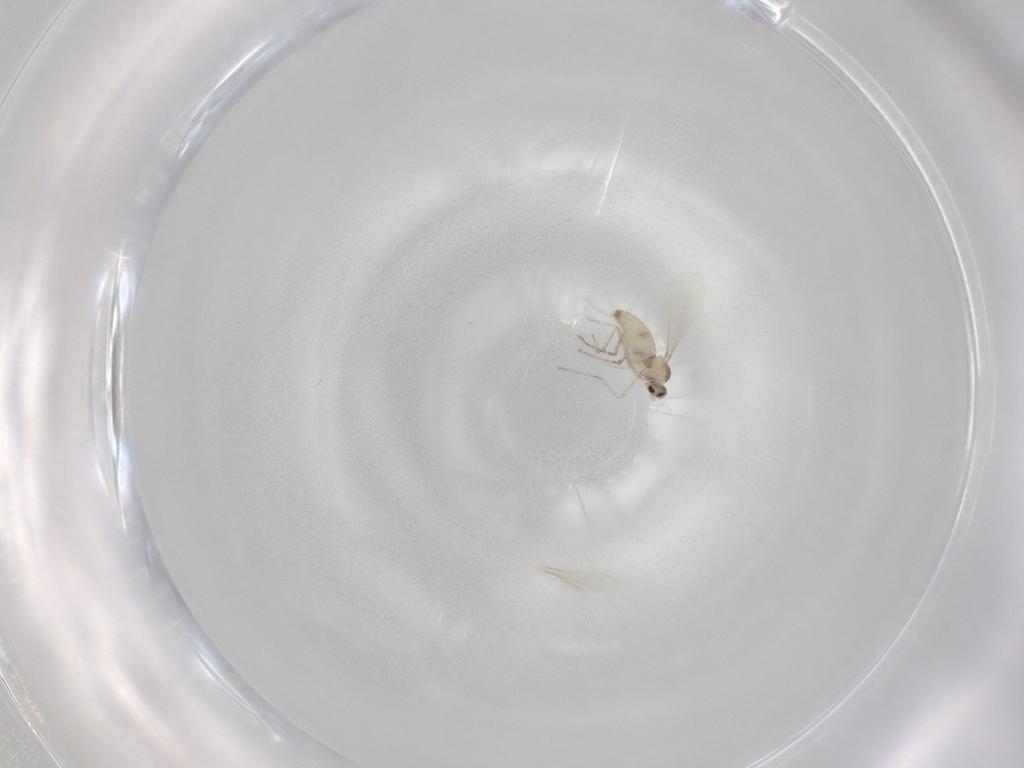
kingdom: Animalia
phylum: Arthropoda
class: Insecta
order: Diptera
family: Cecidomyiidae
